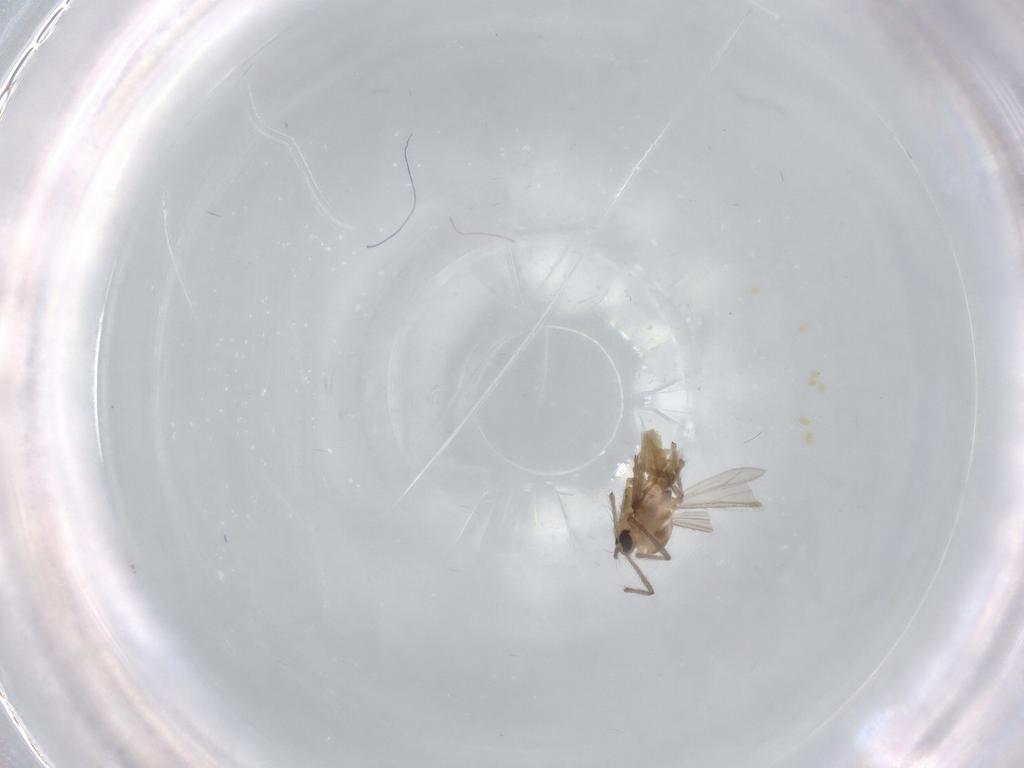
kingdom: Animalia
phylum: Arthropoda
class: Insecta
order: Diptera
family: Chironomidae
